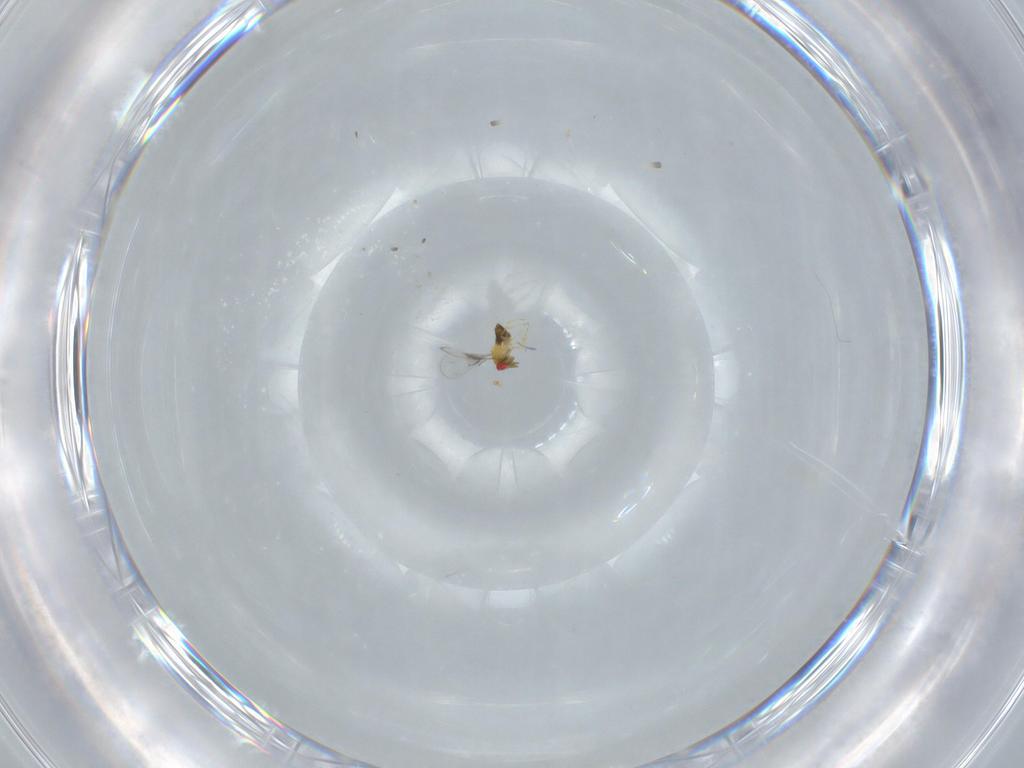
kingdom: Animalia
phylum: Arthropoda
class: Insecta
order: Hymenoptera
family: Trichogrammatidae
